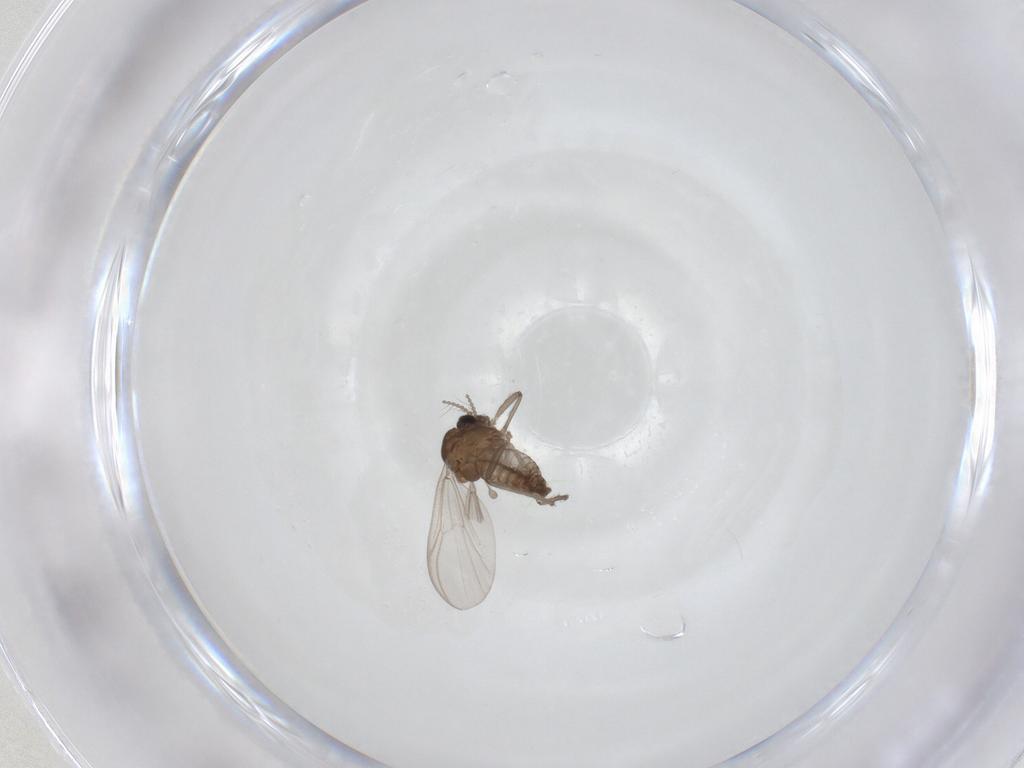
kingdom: Animalia
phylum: Arthropoda
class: Insecta
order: Diptera
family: Chironomidae
